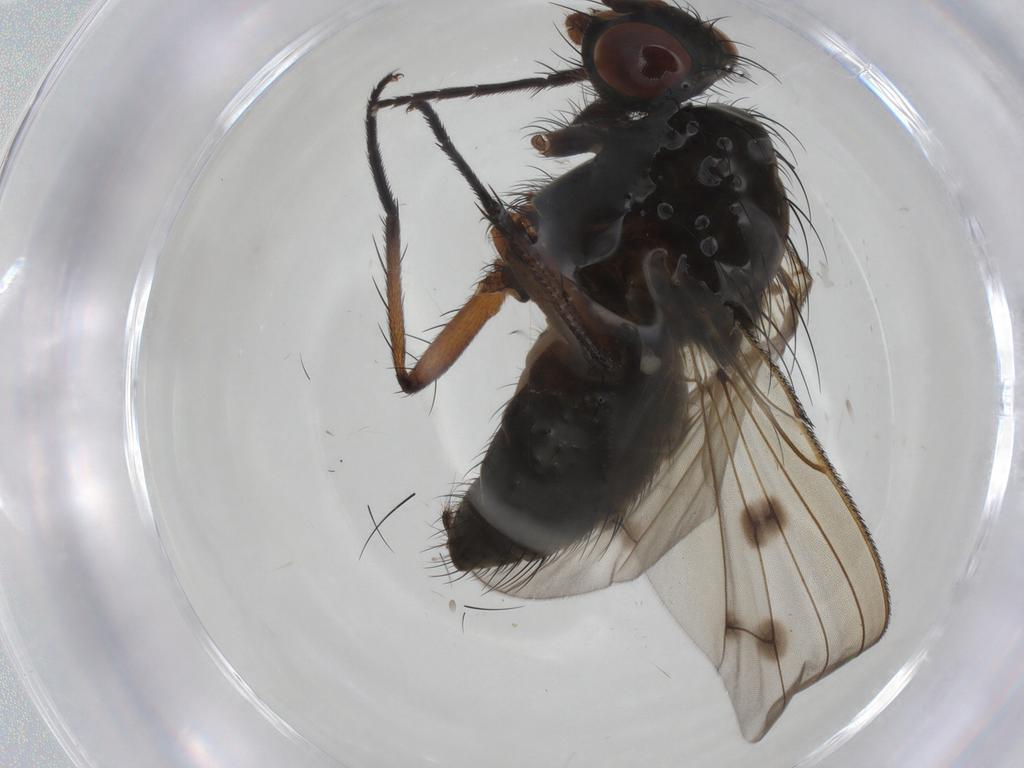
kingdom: Animalia
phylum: Arthropoda
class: Insecta
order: Diptera
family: Anthomyiidae
